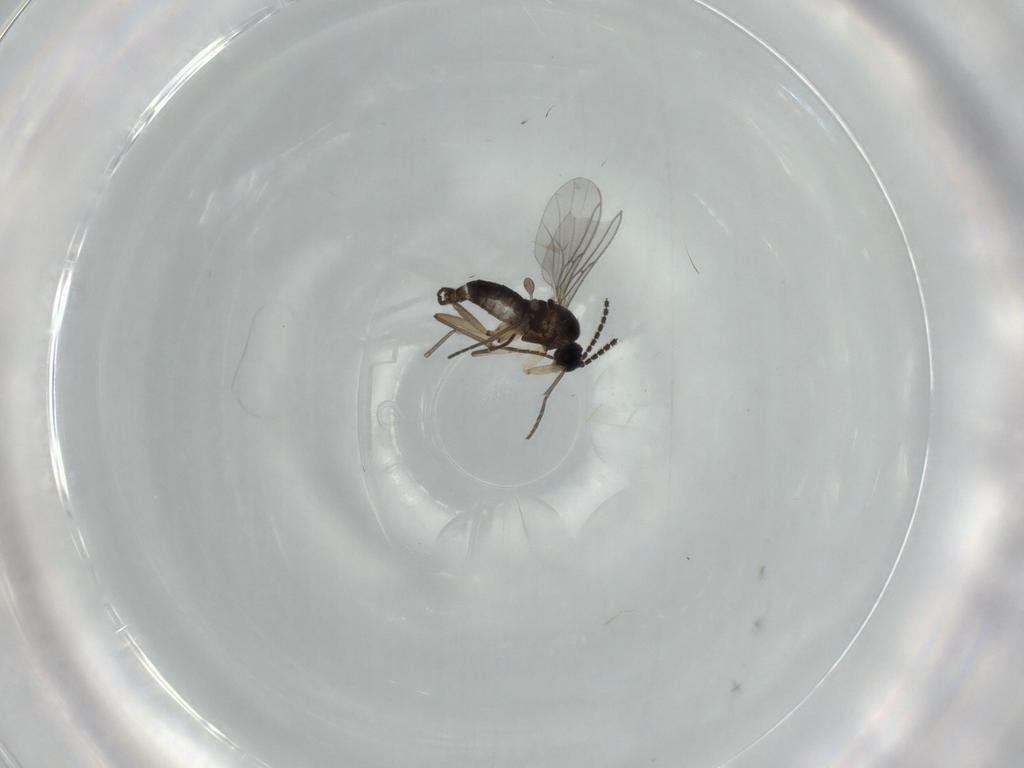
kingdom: Animalia
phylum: Arthropoda
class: Insecta
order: Diptera
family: Sciaridae
